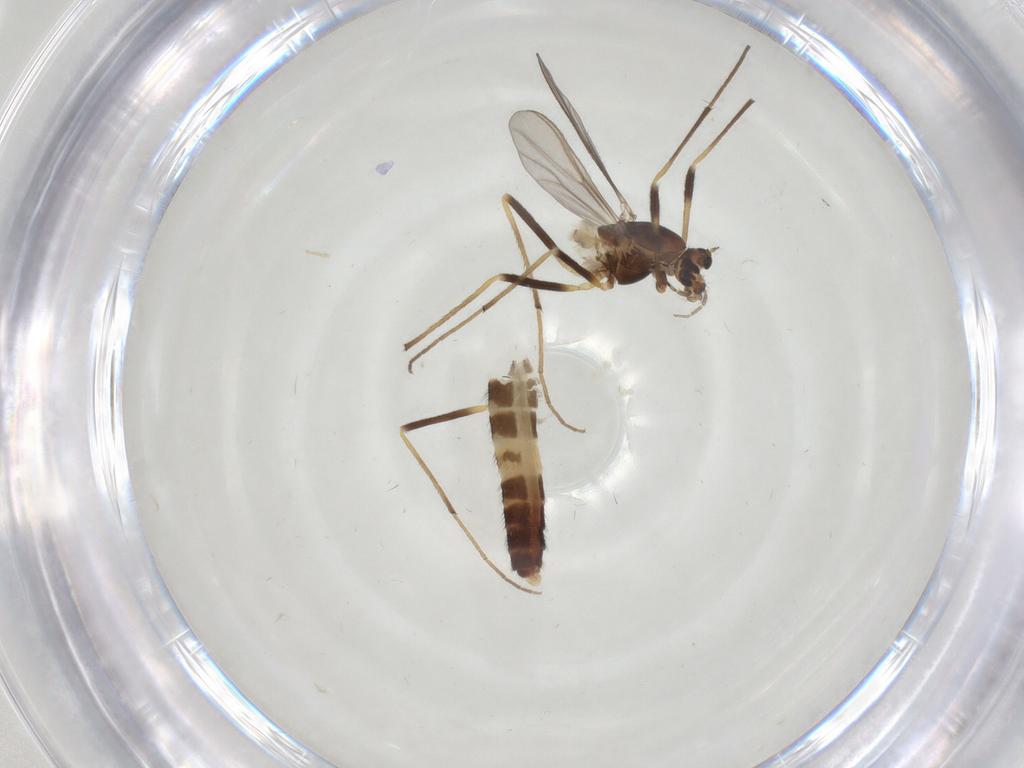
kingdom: Animalia
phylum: Arthropoda
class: Insecta
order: Diptera
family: Chironomidae
